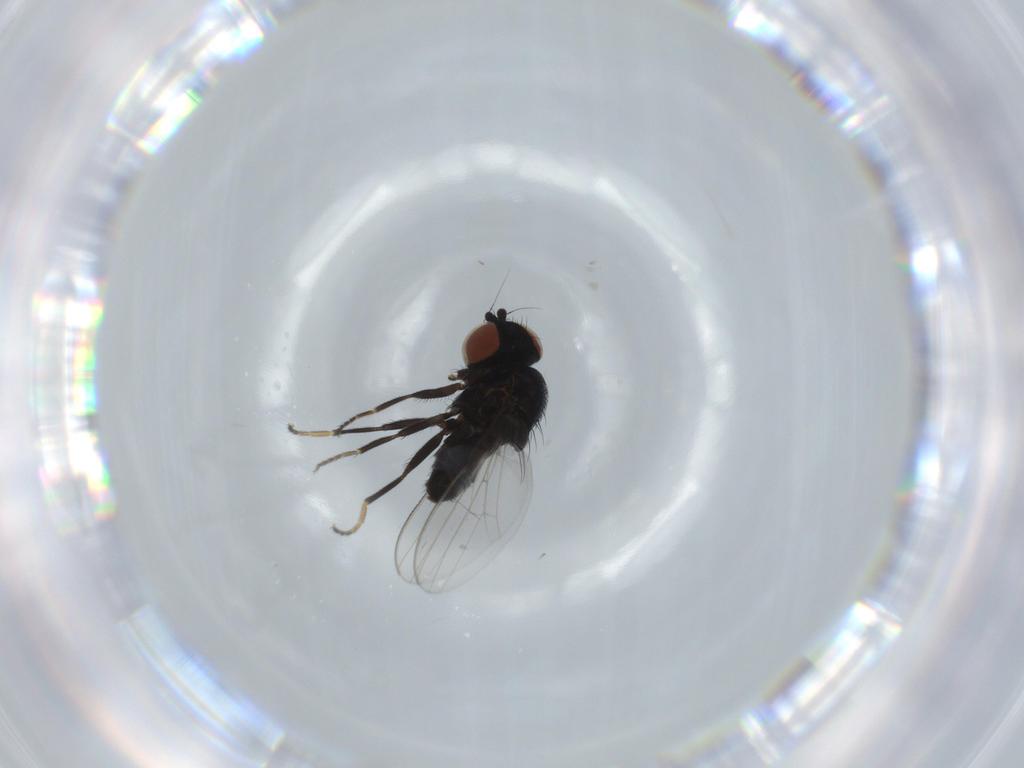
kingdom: Animalia
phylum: Arthropoda
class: Insecta
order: Diptera
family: Milichiidae
